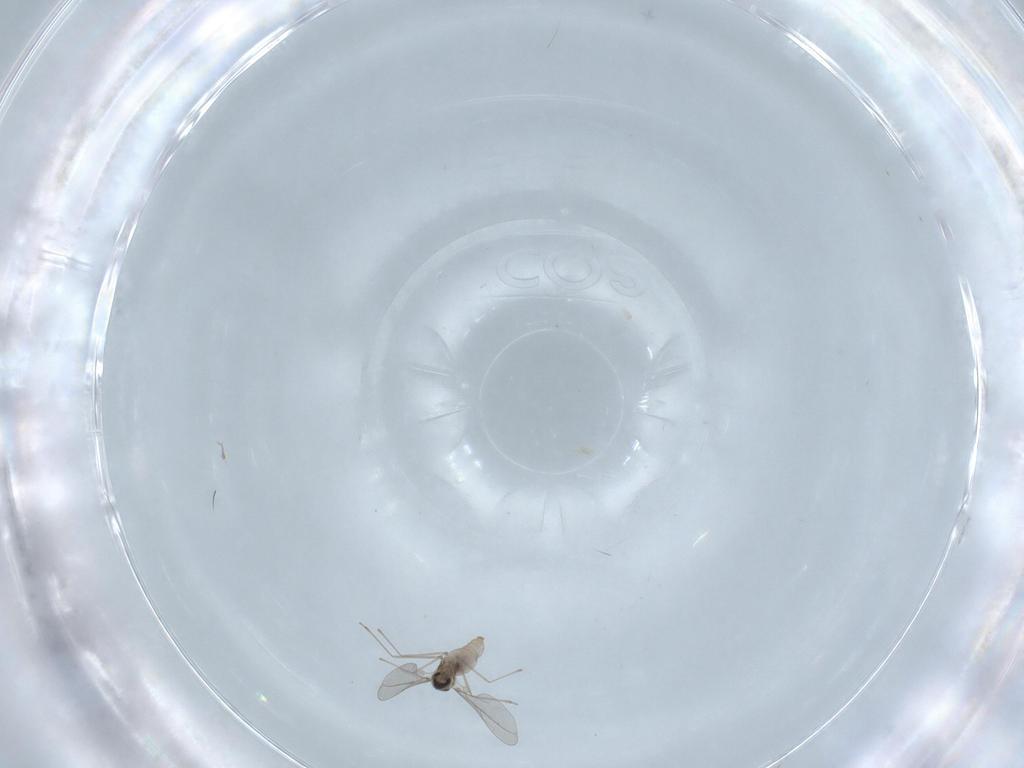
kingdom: Animalia
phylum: Arthropoda
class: Insecta
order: Diptera
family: Cecidomyiidae
